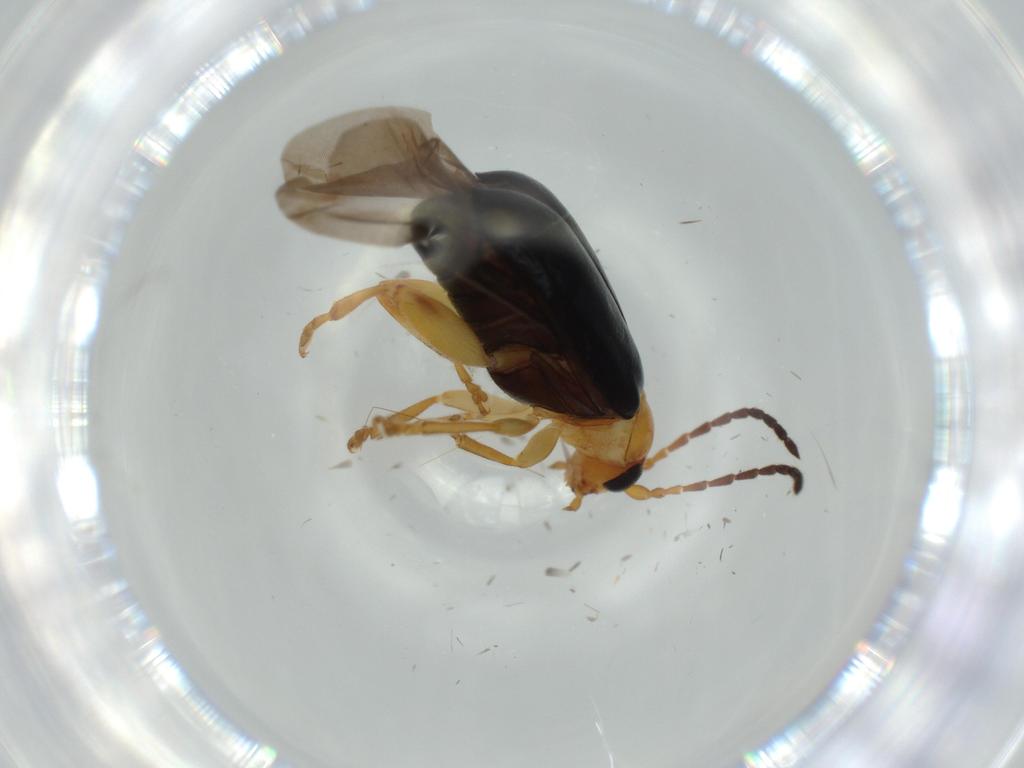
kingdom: Animalia
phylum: Arthropoda
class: Insecta
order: Coleoptera
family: Chrysomelidae
